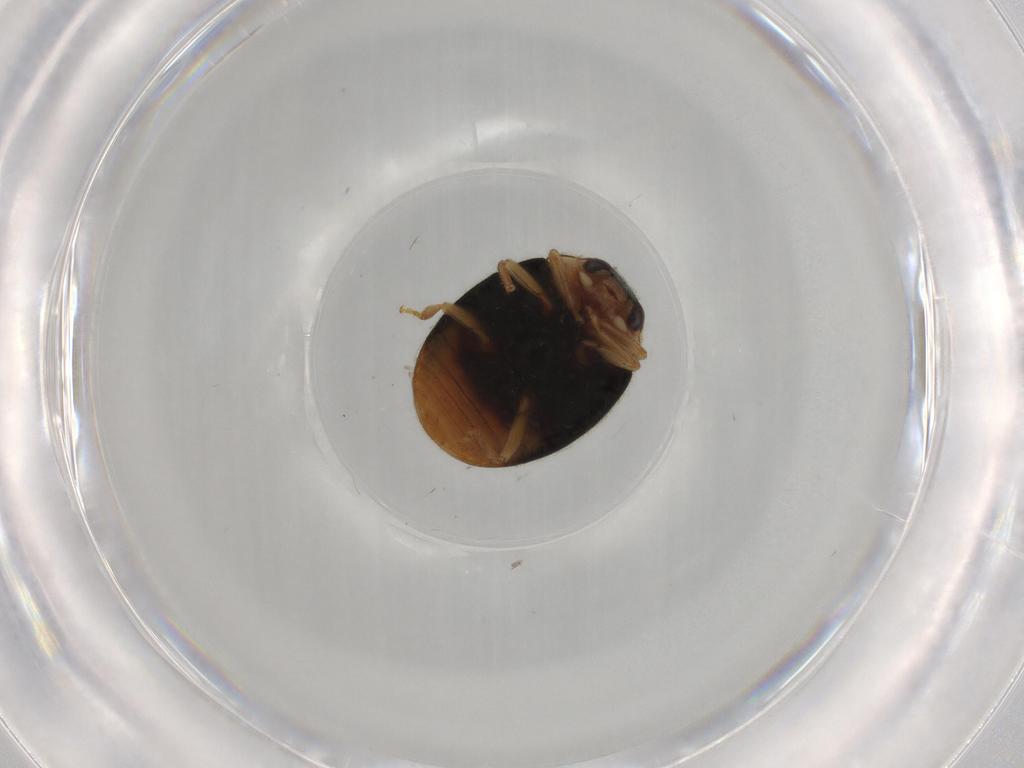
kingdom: Animalia
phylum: Arthropoda
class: Insecta
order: Coleoptera
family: Coccinellidae
